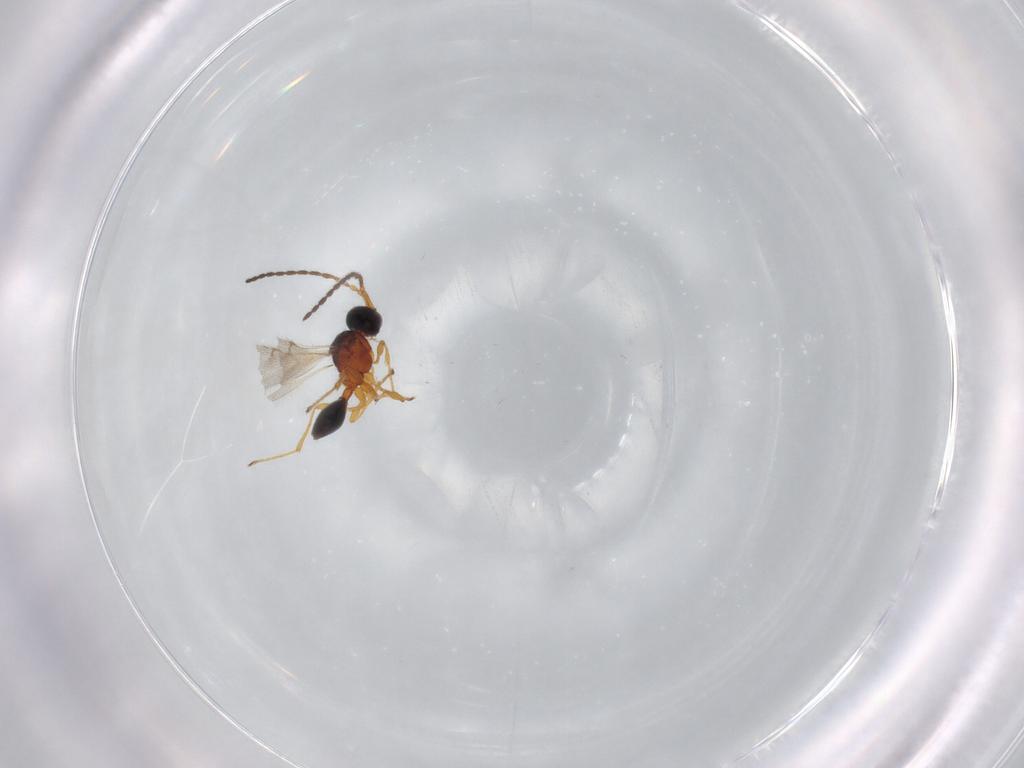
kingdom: Animalia
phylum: Arthropoda
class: Insecta
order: Hymenoptera
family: Diapriidae
